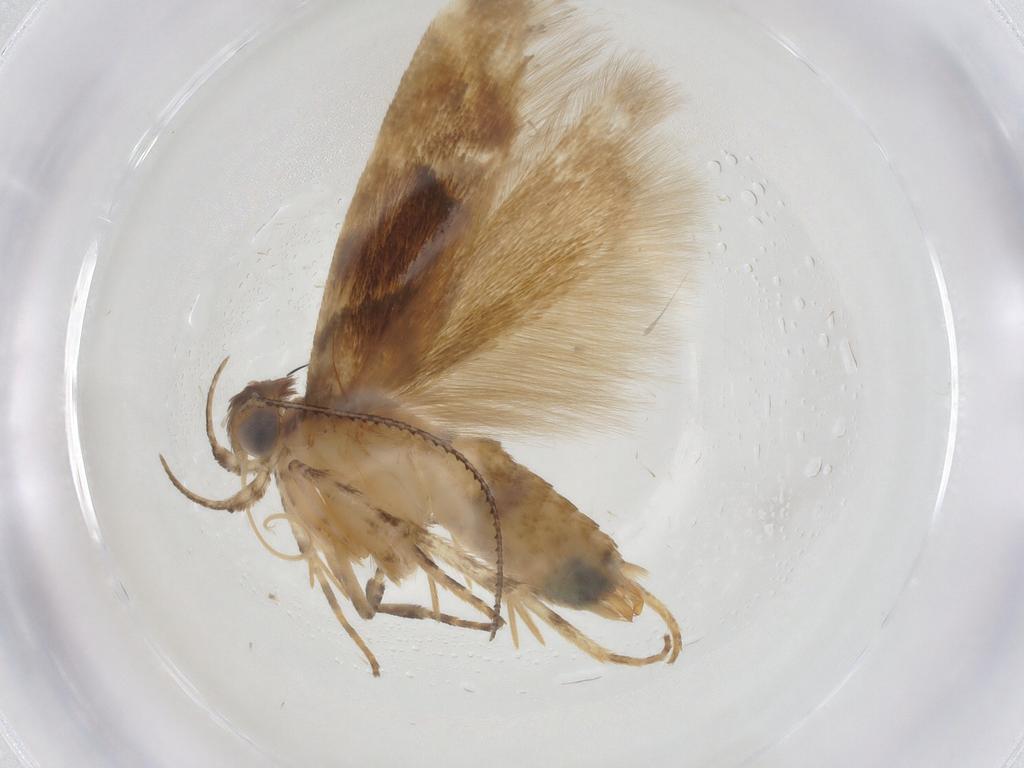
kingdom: Animalia
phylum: Arthropoda
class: Insecta
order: Lepidoptera
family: Gelechiidae
